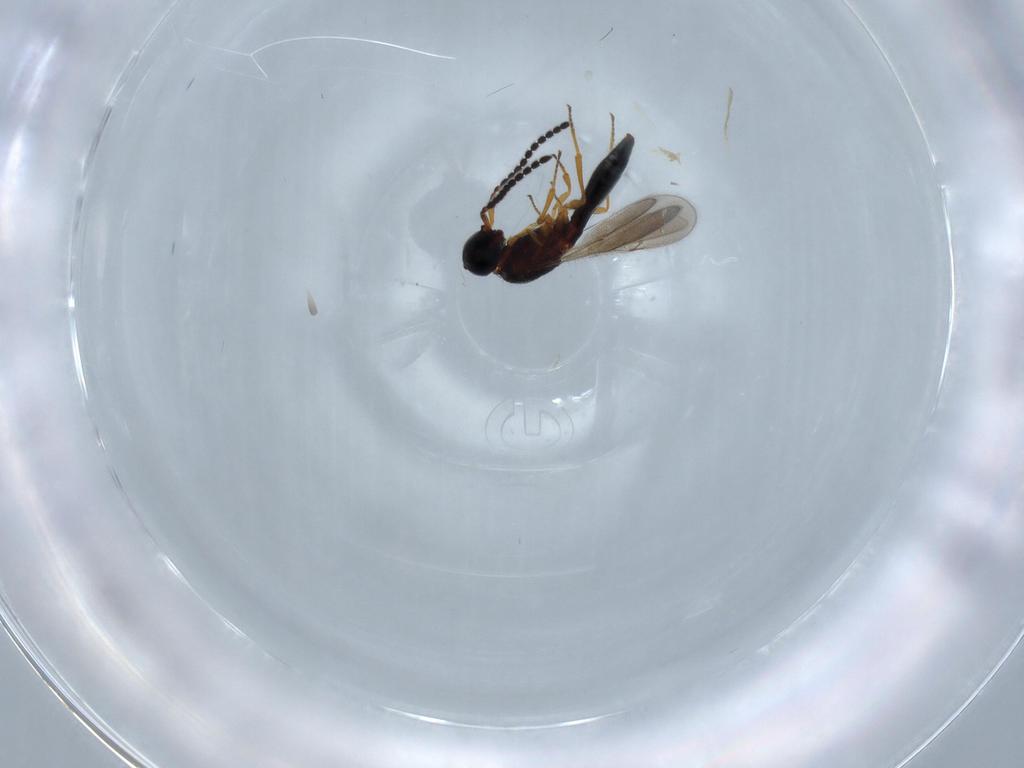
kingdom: Animalia
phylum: Arthropoda
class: Insecta
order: Hymenoptera
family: Scelionidae
